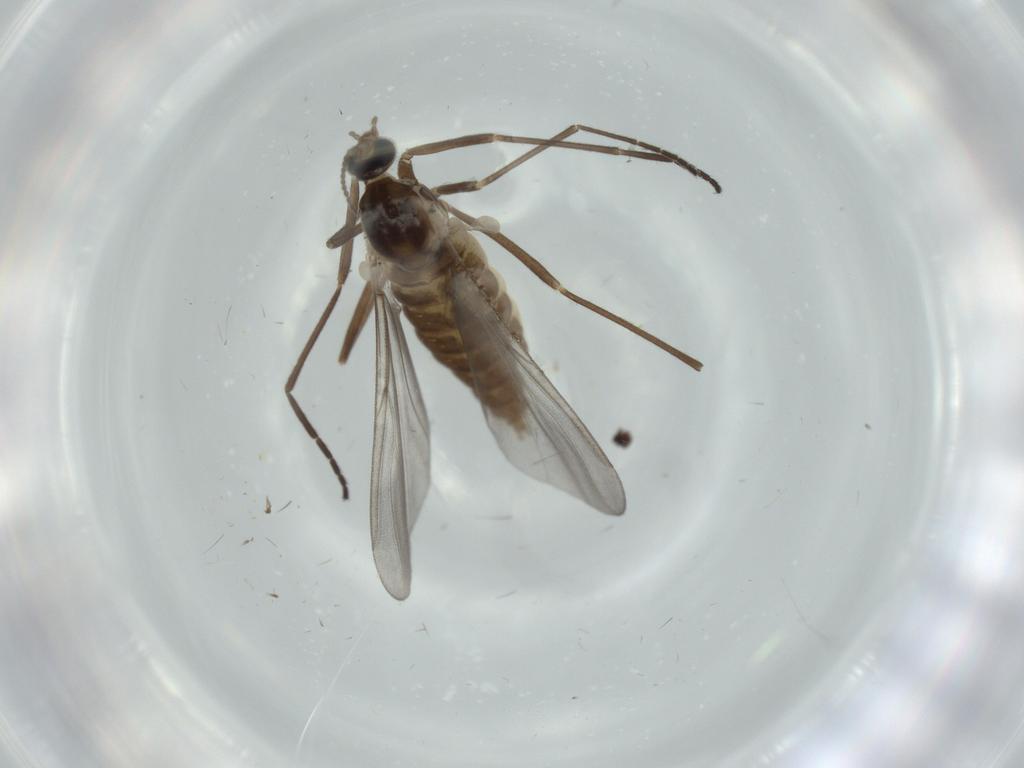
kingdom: Animalia
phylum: Arthropoda
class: Insecta
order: Diptera
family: Cecidomyiidae
